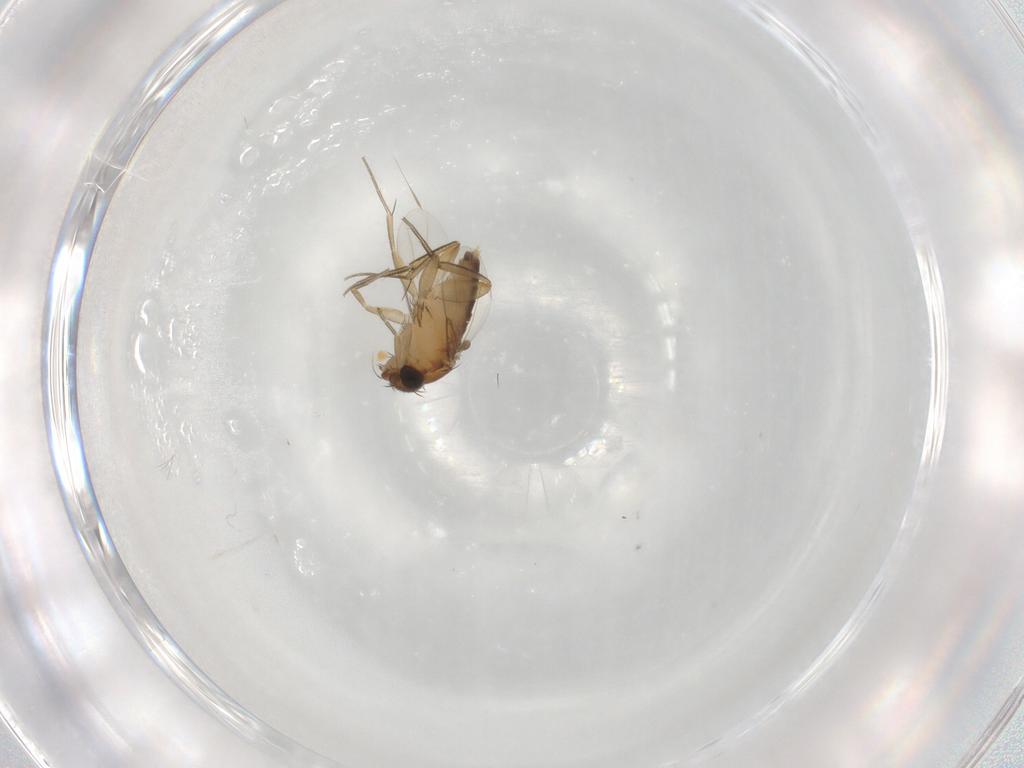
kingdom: Animalia
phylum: Arthropoda
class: Insecta
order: Diptera
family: Phoridae
